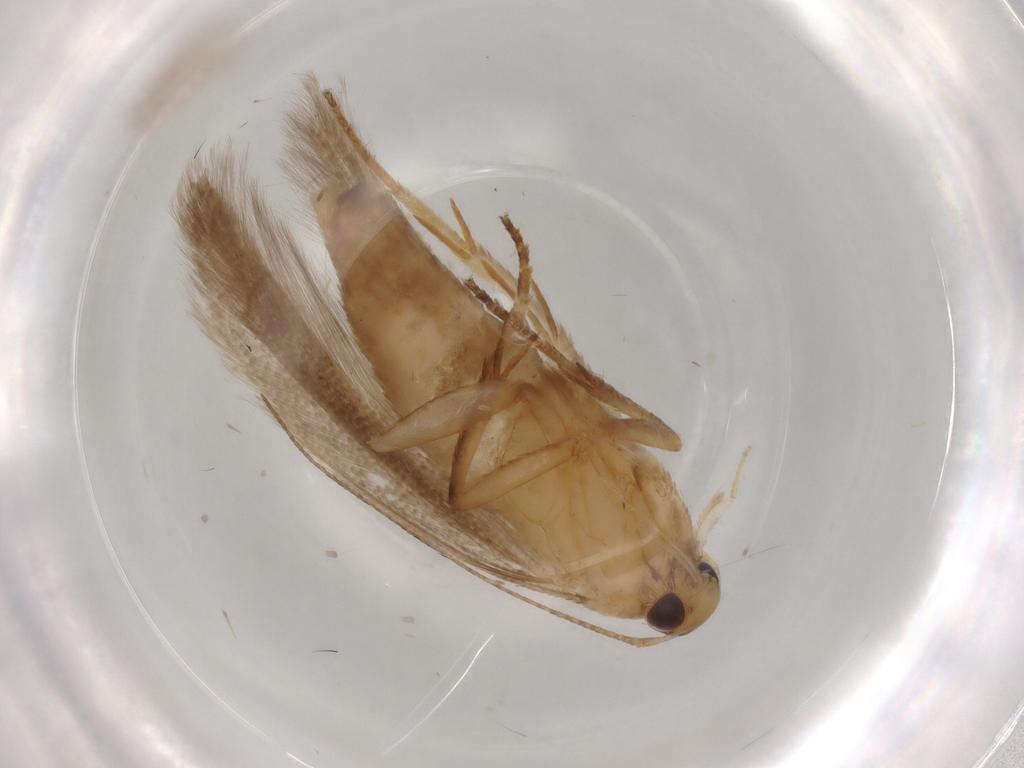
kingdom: Animalia
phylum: Arthropoda
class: Insecta
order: Lepidoptera
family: Gelechiidae
